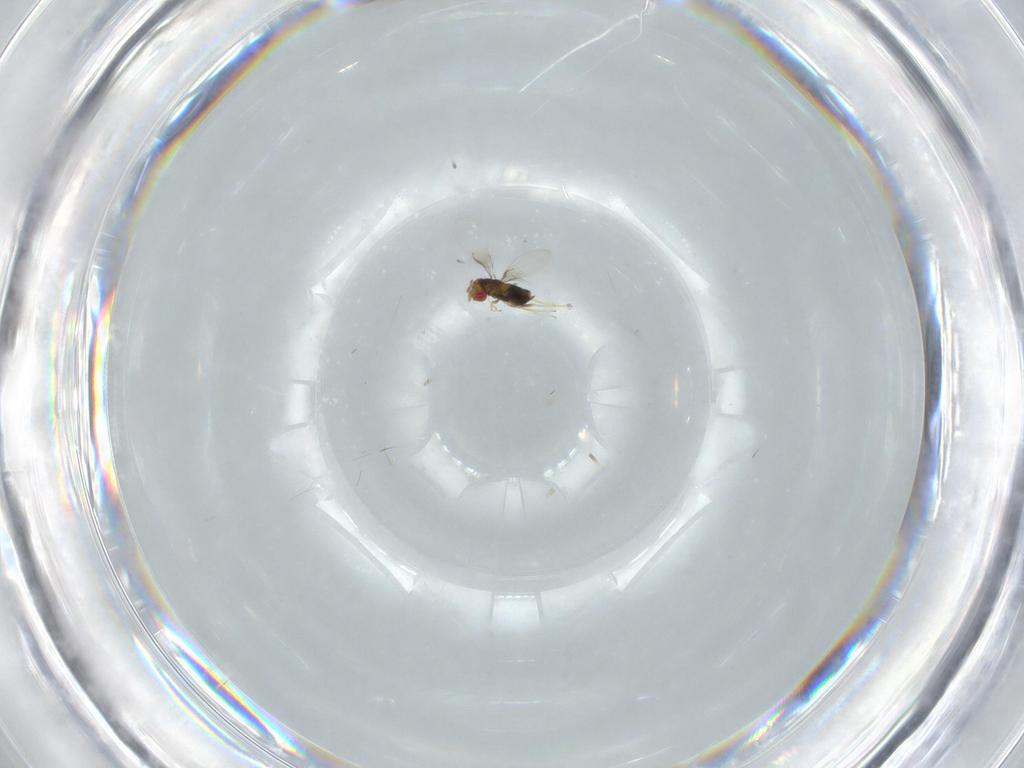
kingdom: Animalia
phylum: Arthropoda
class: Insecta
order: Hymenoptera
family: Trichogrammatidae
